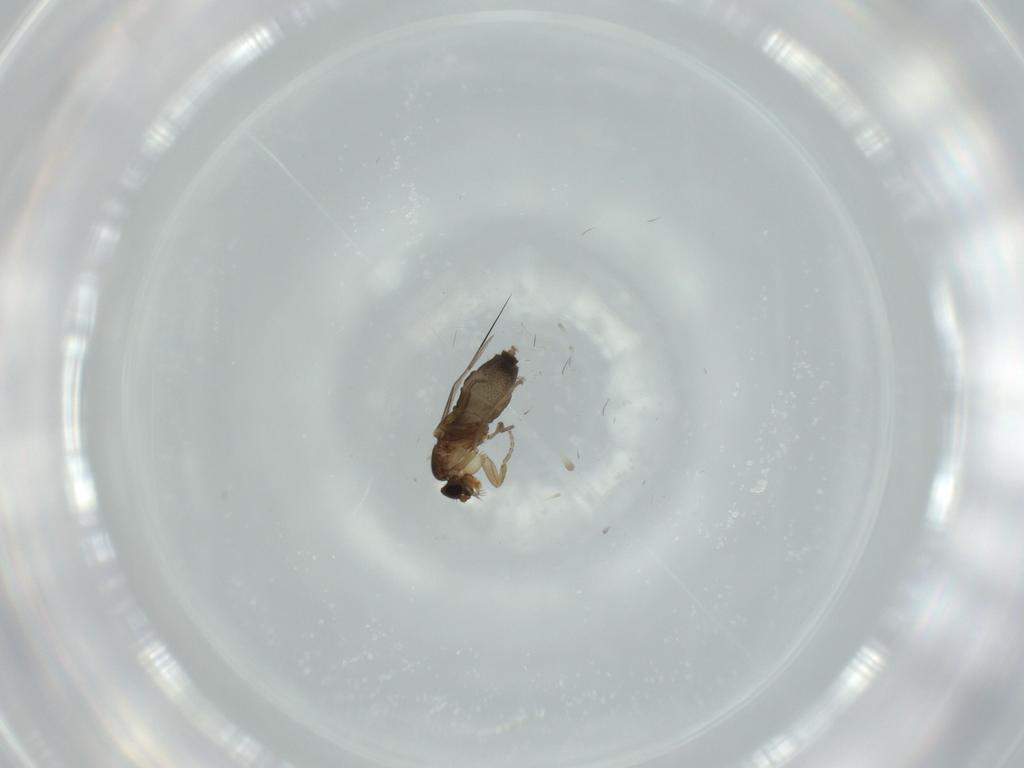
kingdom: Animalia
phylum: Arthropoda
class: Insecta
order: Diptera
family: Phoridae
